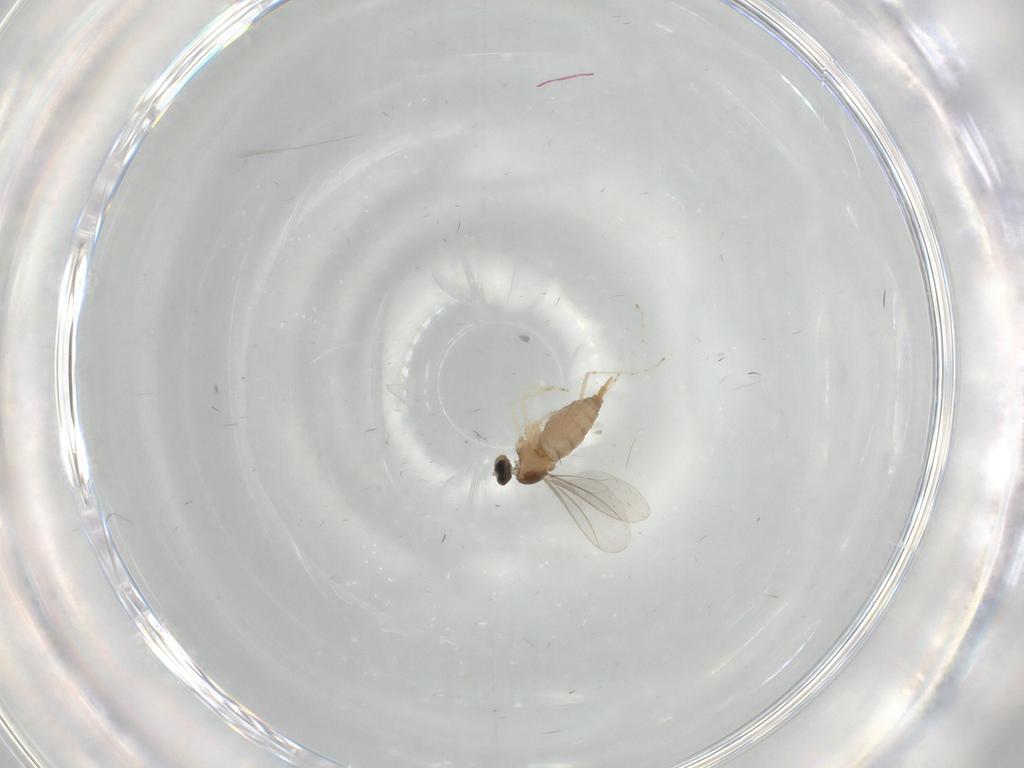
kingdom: Animalia
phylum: Arthropoda
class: Insecta
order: Diptera
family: Cecidomyiidae
